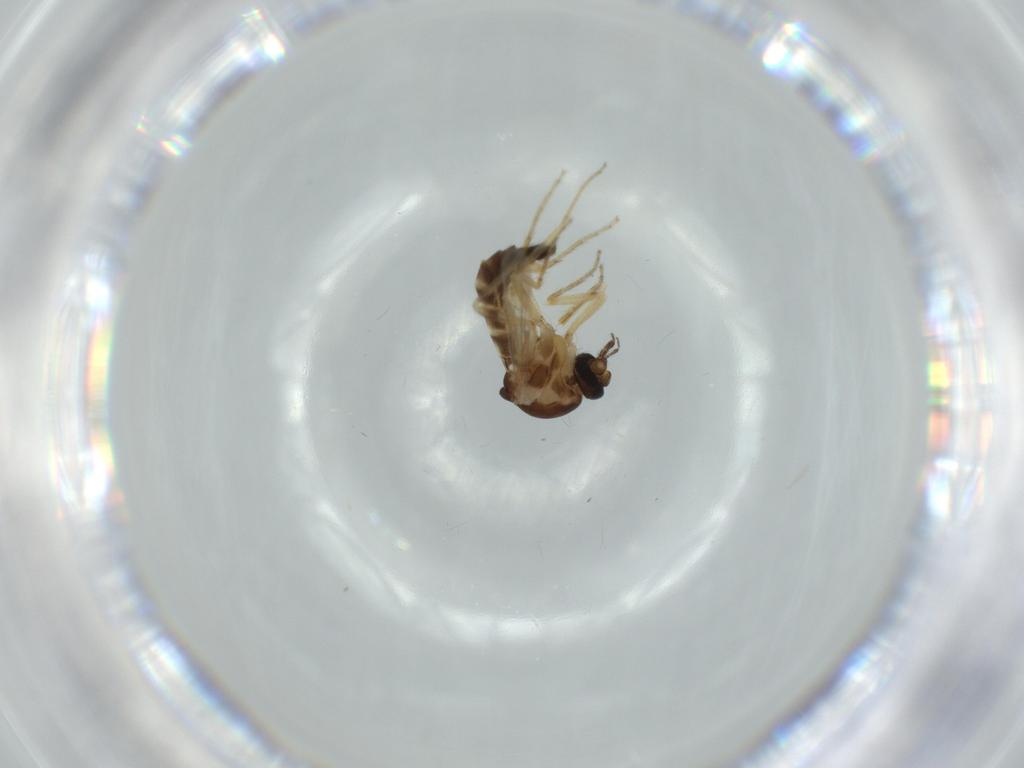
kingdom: Animalia
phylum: Arthropoda
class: Insecta
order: Diptera
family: Ceratopogonidae
